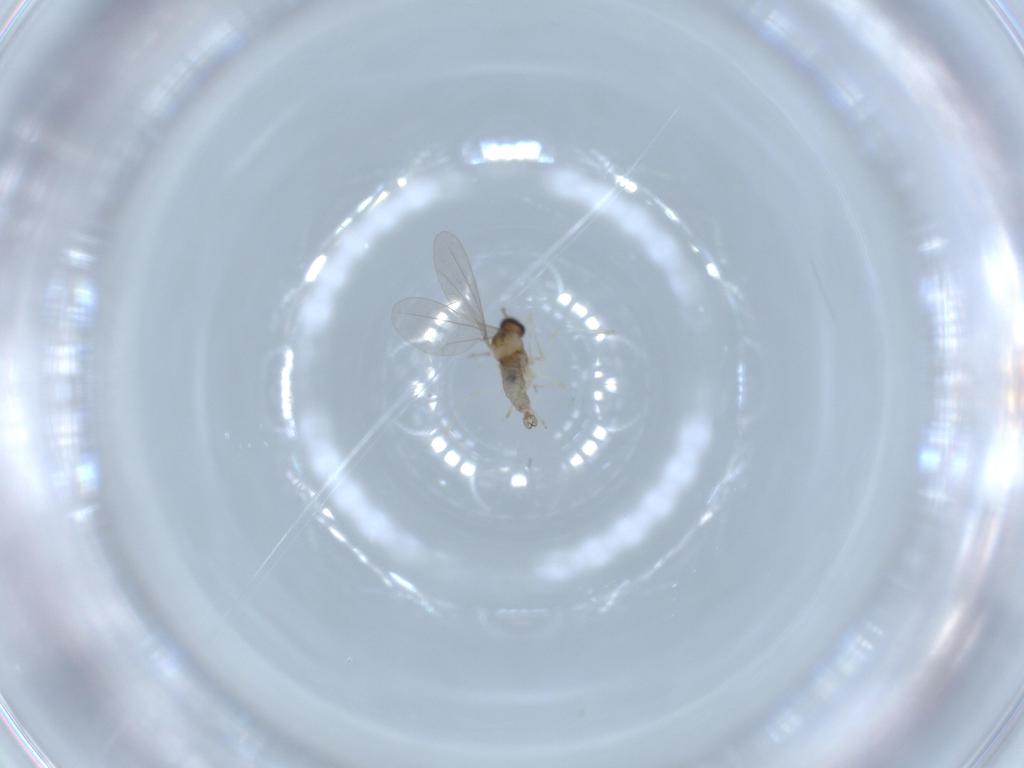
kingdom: Animalia
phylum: Arthropoda
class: Insecta
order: Diptera
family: Cecidomyiidae
